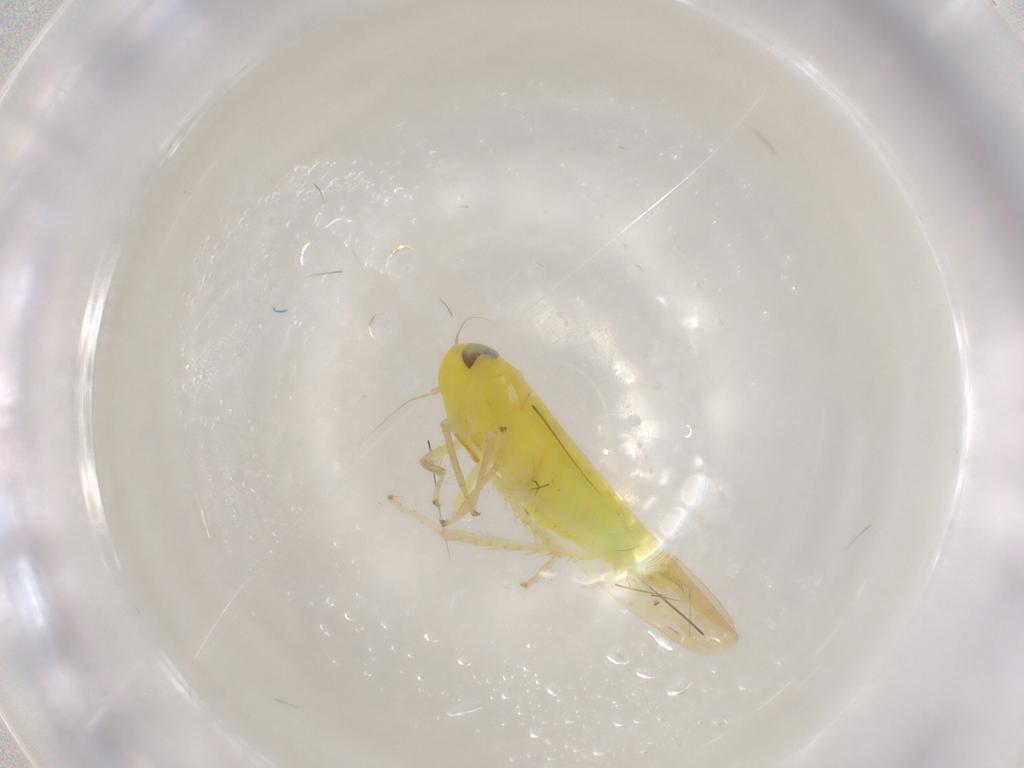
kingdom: Animalia
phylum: Arthropoda
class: Insecta
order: Hemiptera
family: Cicadellidae
